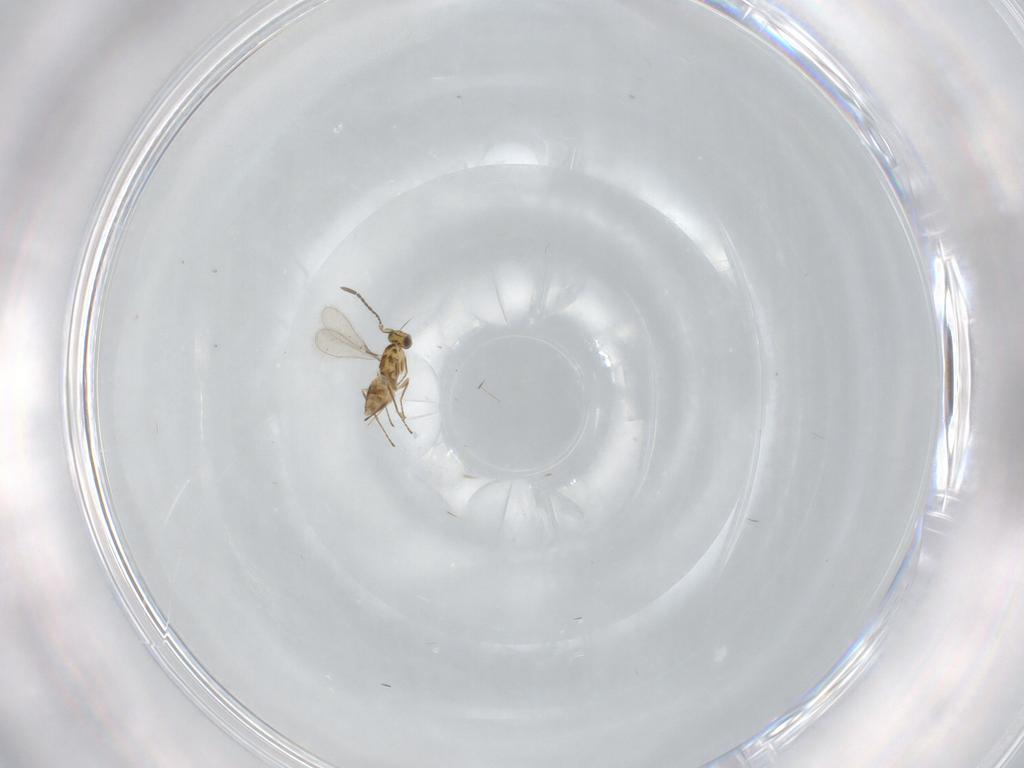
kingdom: Animalia
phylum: Arthropoda
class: Insecta
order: Hymenoptera
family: Mymaridae
